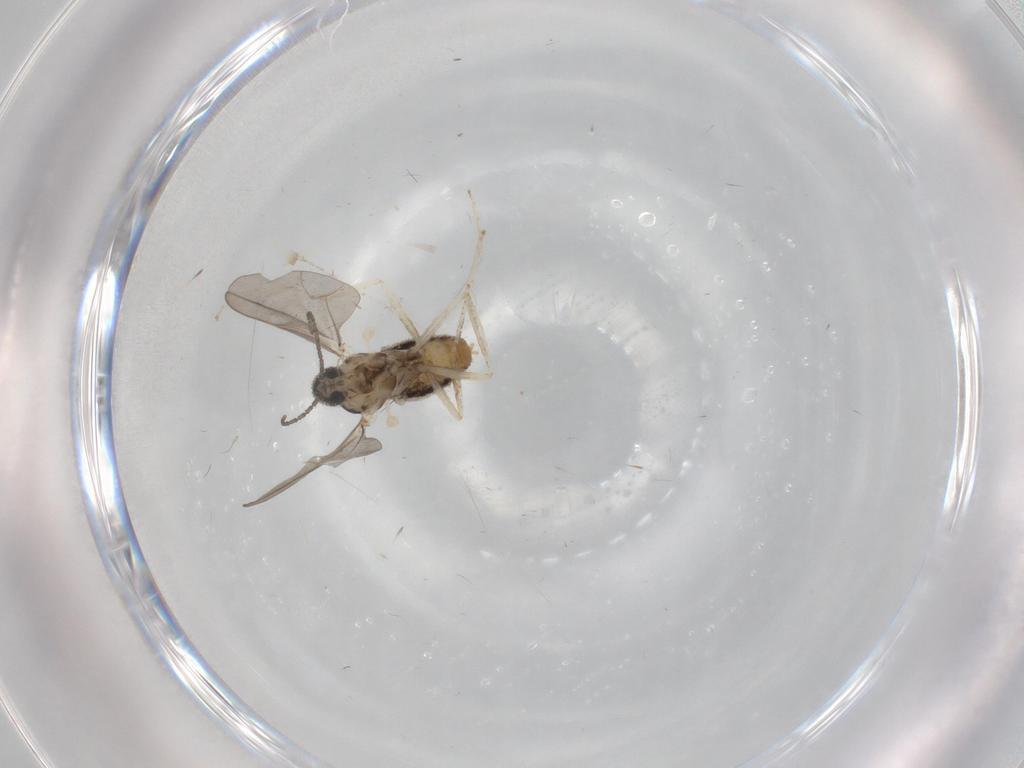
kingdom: Animalia
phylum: Arthropoda
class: Insecta
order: Diptera
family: Cecidomyiidae
